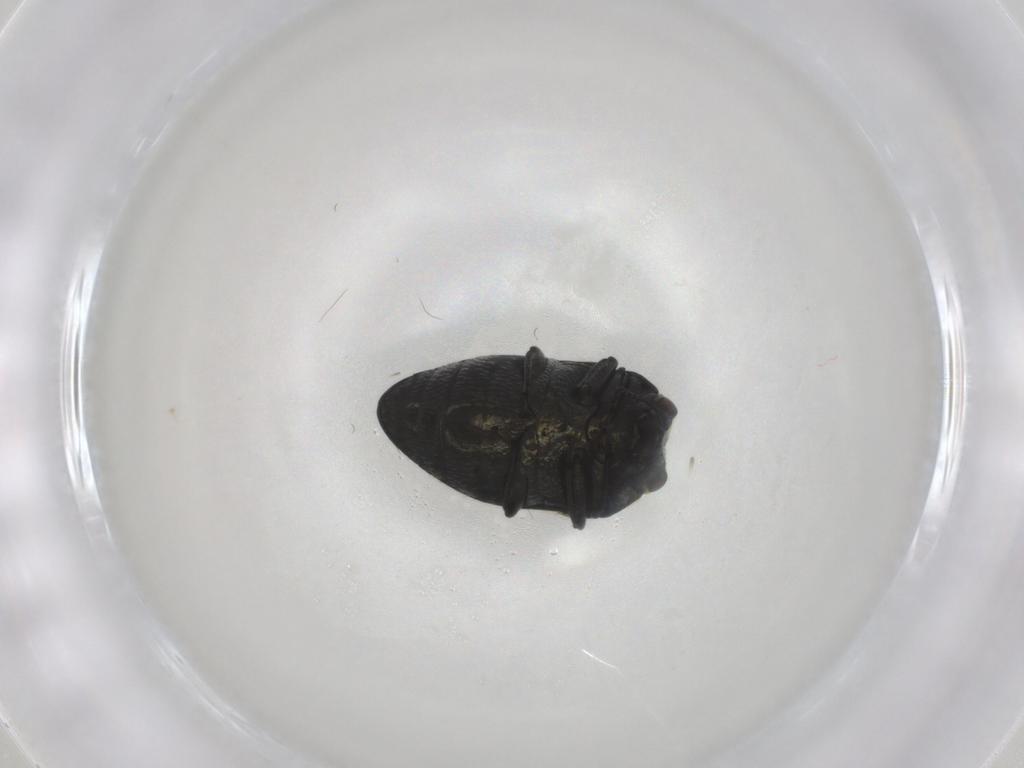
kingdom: Animalia
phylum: Arthropoda
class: Insecta
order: Coleoptera
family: Buprestidae
